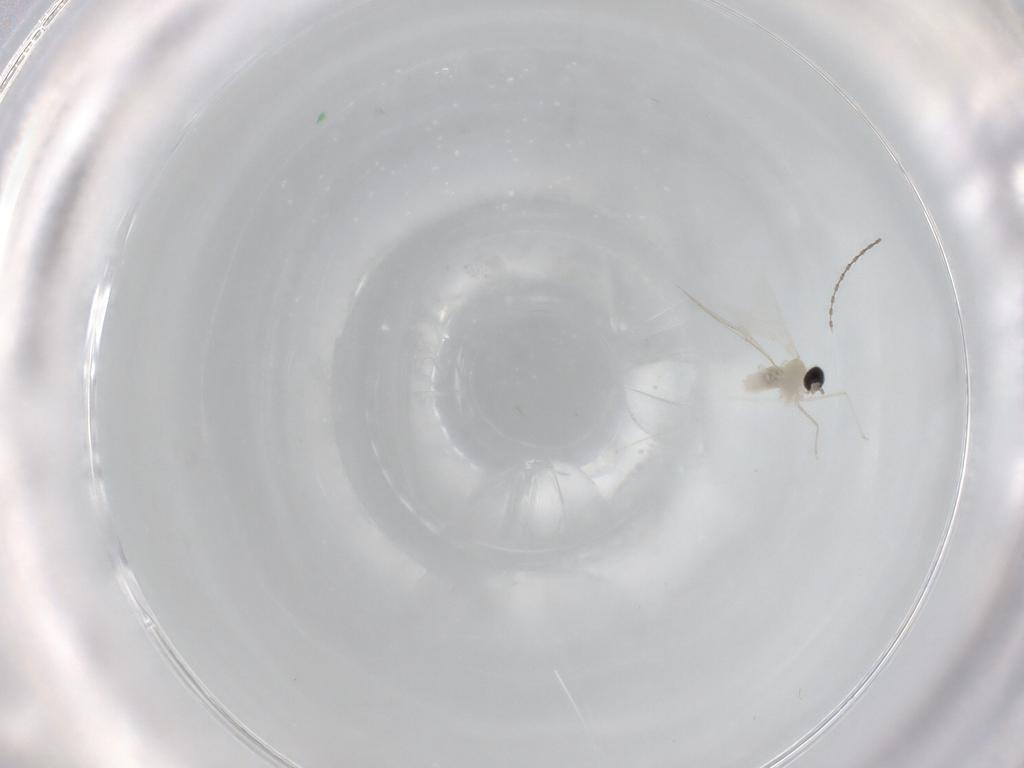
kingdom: Animalia
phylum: Arthropoda
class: Insecta
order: Diptera
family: Cecidomyiidae
